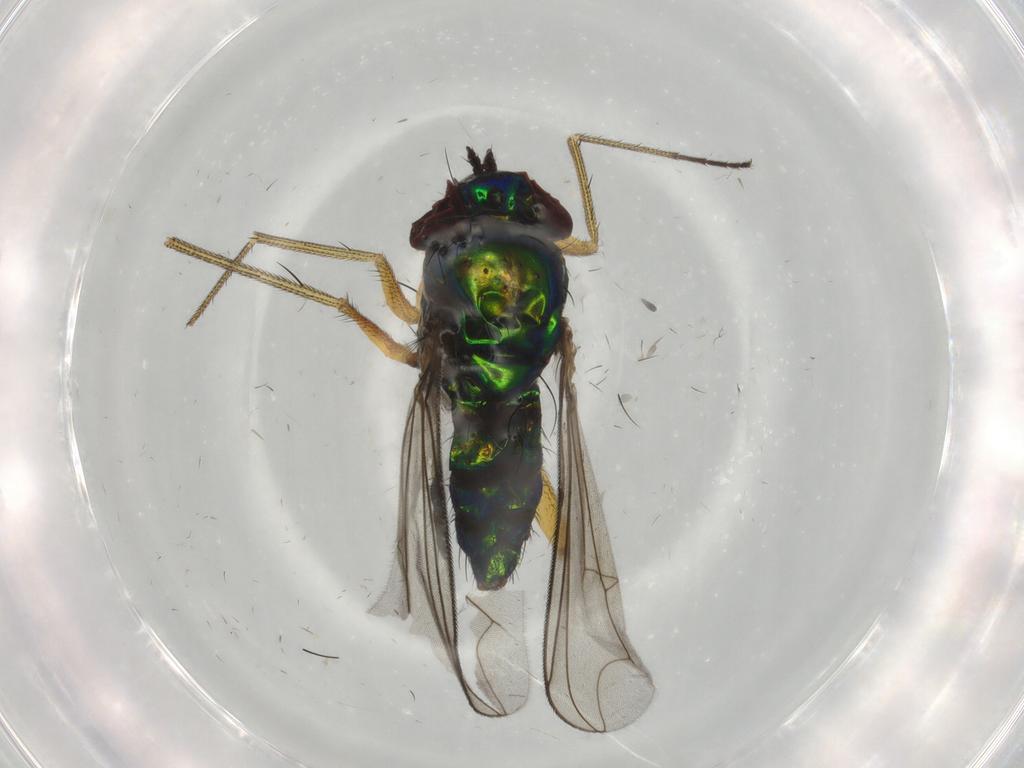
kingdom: Animalia
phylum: Arthropoda
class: Insecta
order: Diptera
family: Dolichopodidae
